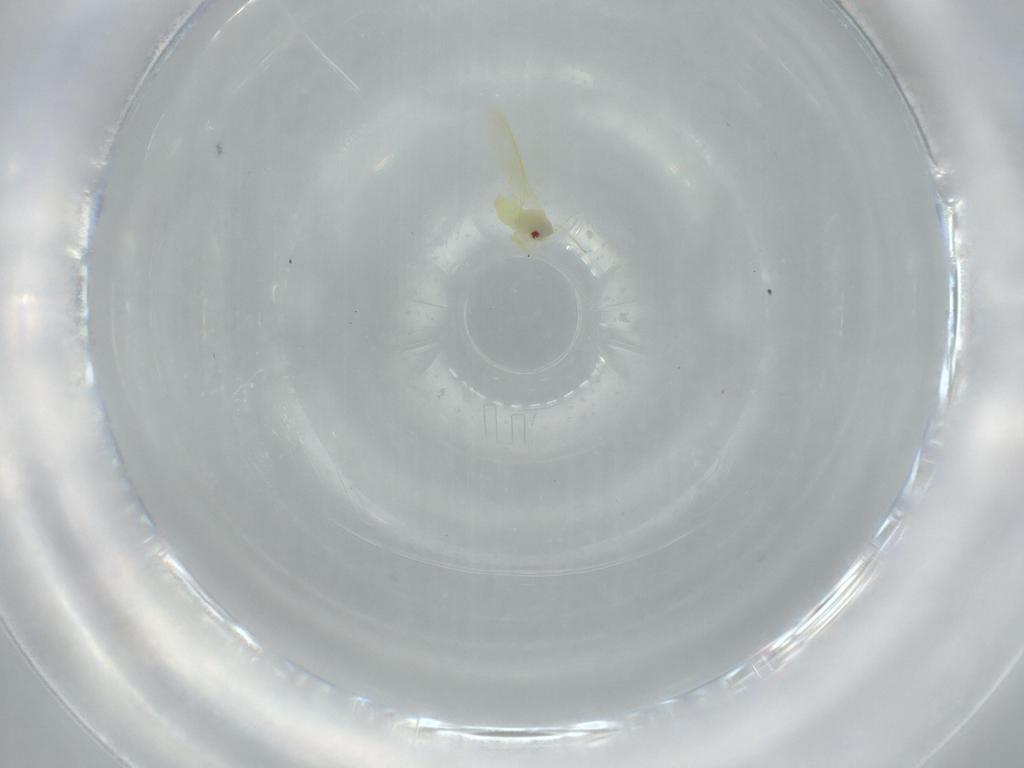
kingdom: Animalia
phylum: Arthropoda
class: Insecta
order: Hemiptera
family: Aleyrodidae
